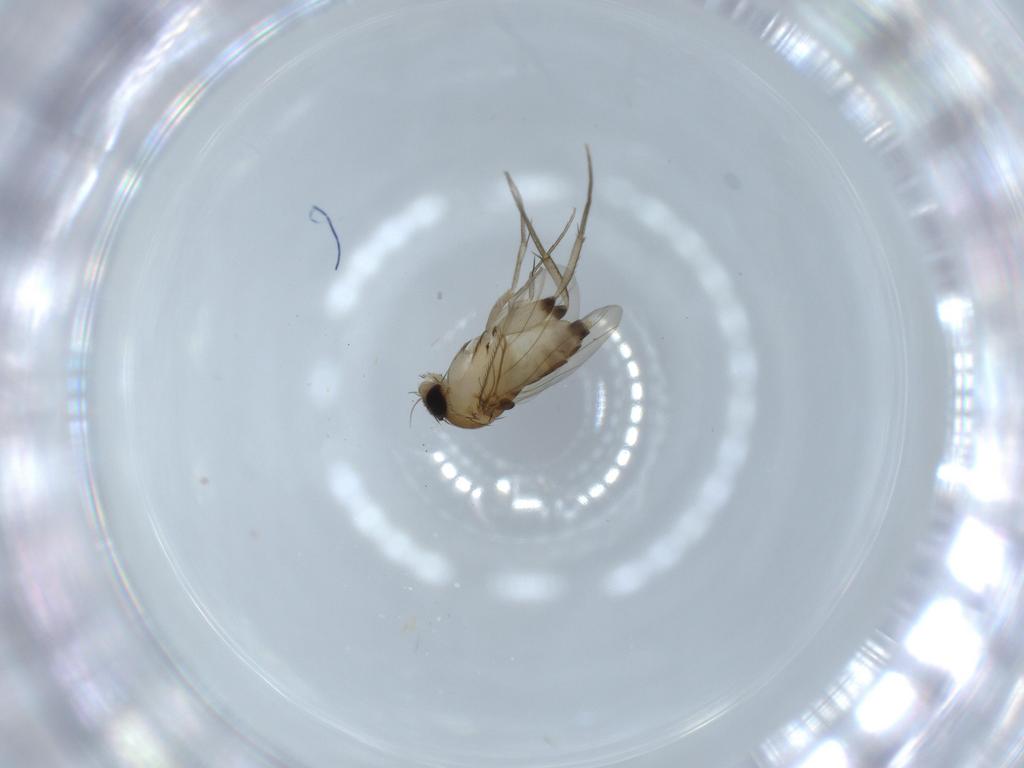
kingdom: Animalia
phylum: Arthropoda
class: Insecta
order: Diptera
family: Phoridae
